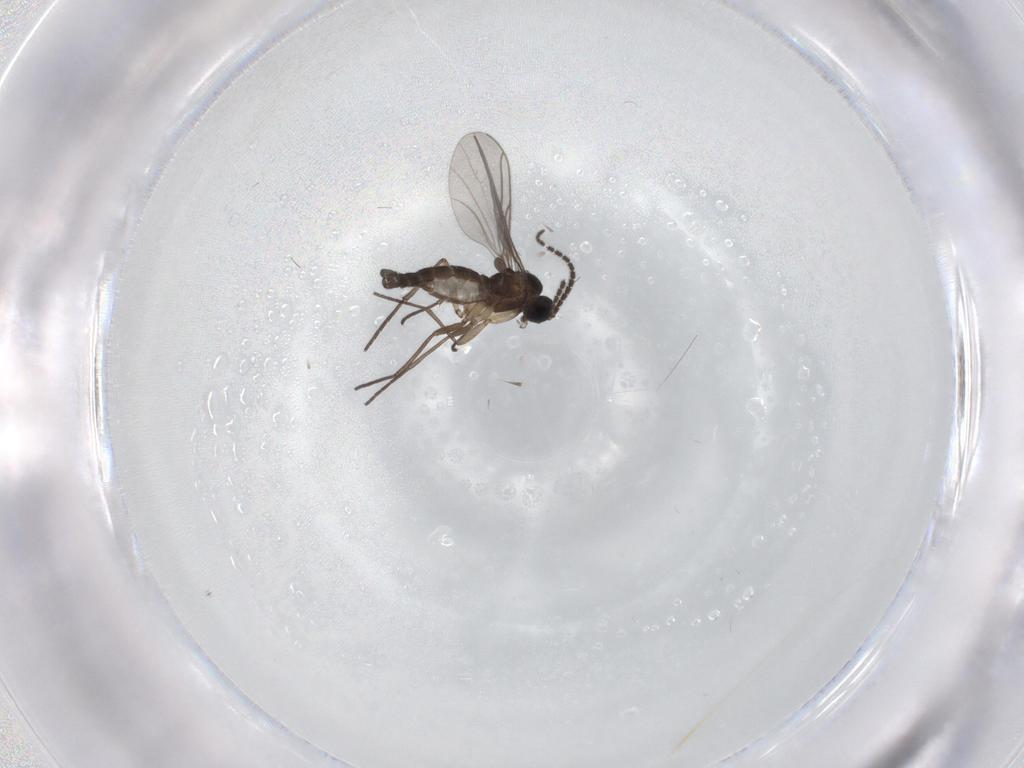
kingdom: Animalia
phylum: Arthropoda
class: Insecta
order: Diptera
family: Sciaridae
